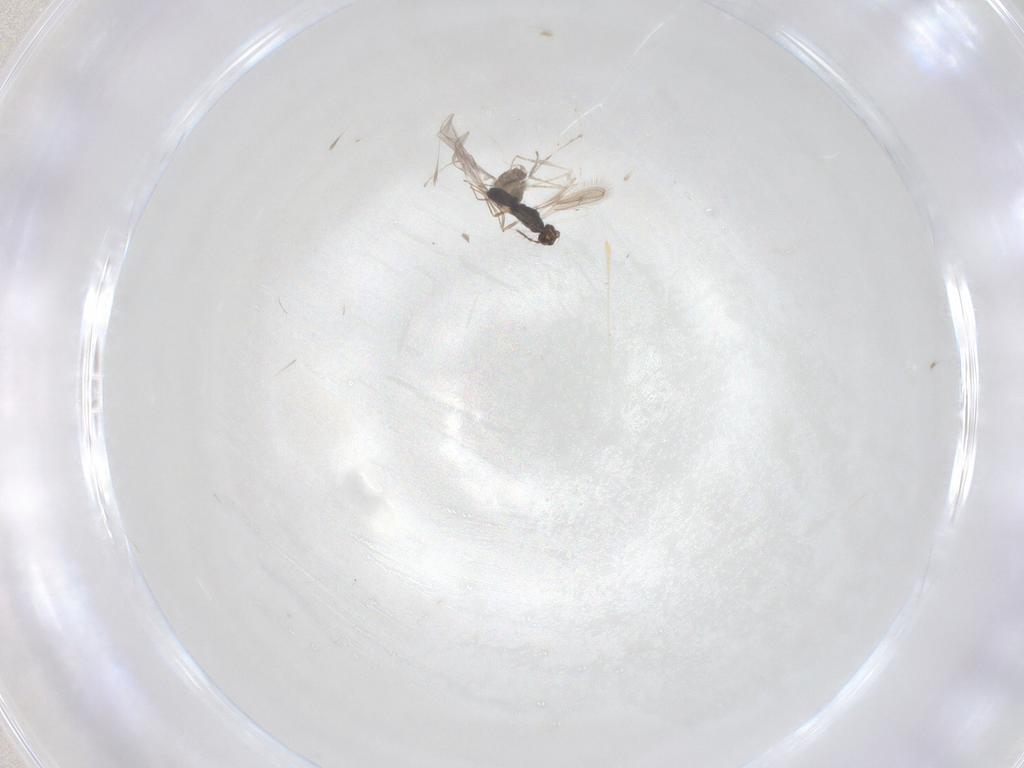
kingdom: Animalia
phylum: Arthropoda
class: Insecta
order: Diptera
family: Cecidomyiidae
